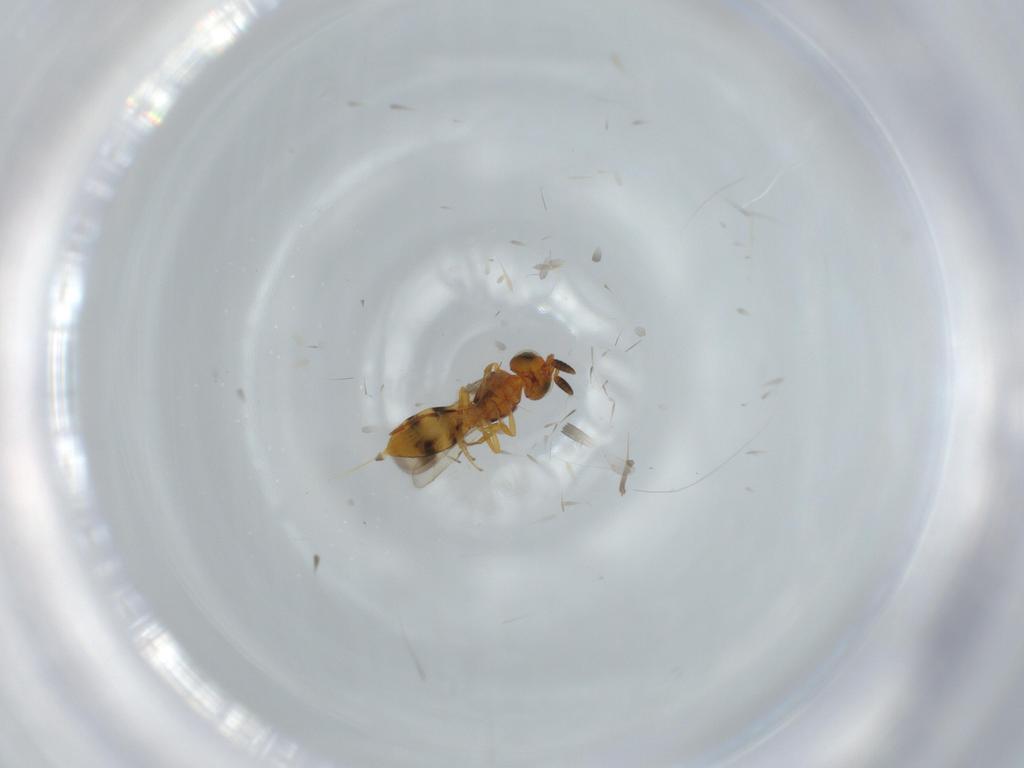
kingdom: Animalia
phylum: Arthropoda
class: Insecta
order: Hymenoptera
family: Scelionidae
